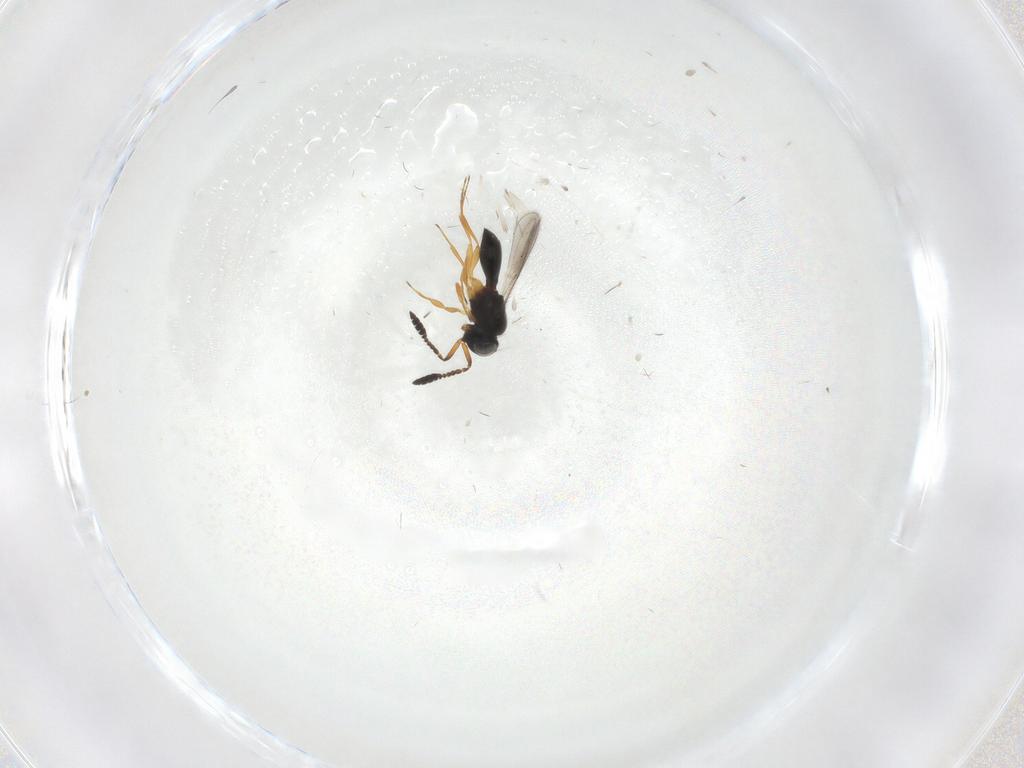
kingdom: Animalia
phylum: Arthropoda
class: Insecta
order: Hymenoptera
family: Scelionidae
